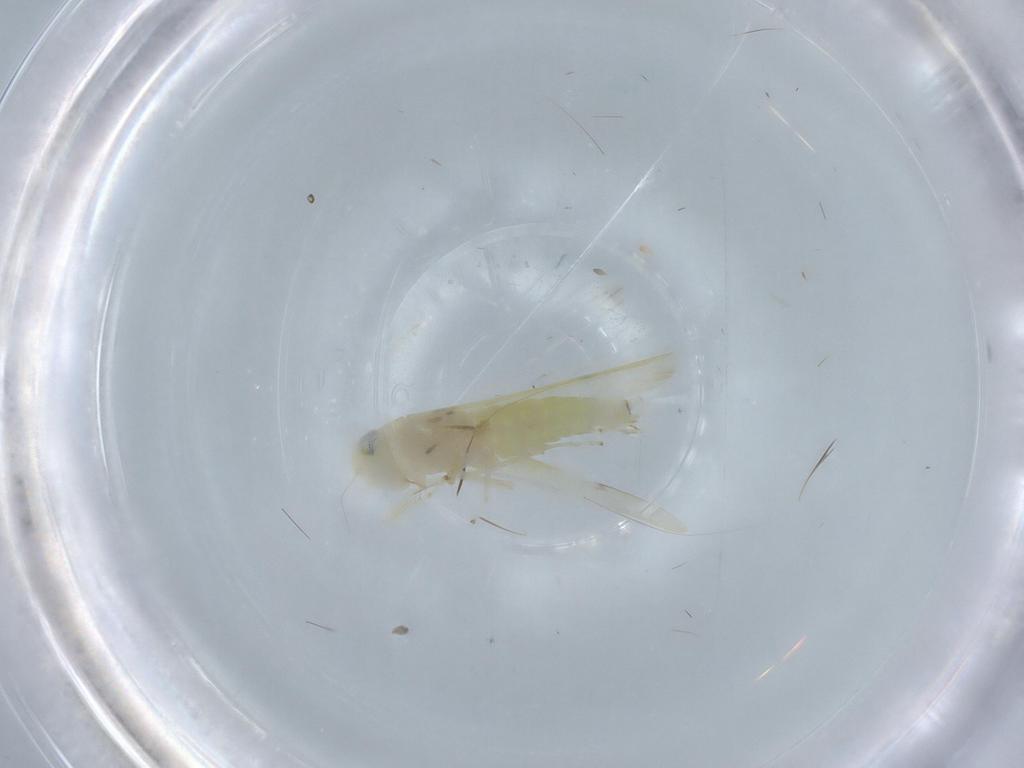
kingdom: Animalia
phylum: Arthropoda
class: Insecta
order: Hemiptera
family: Cicadellidae
